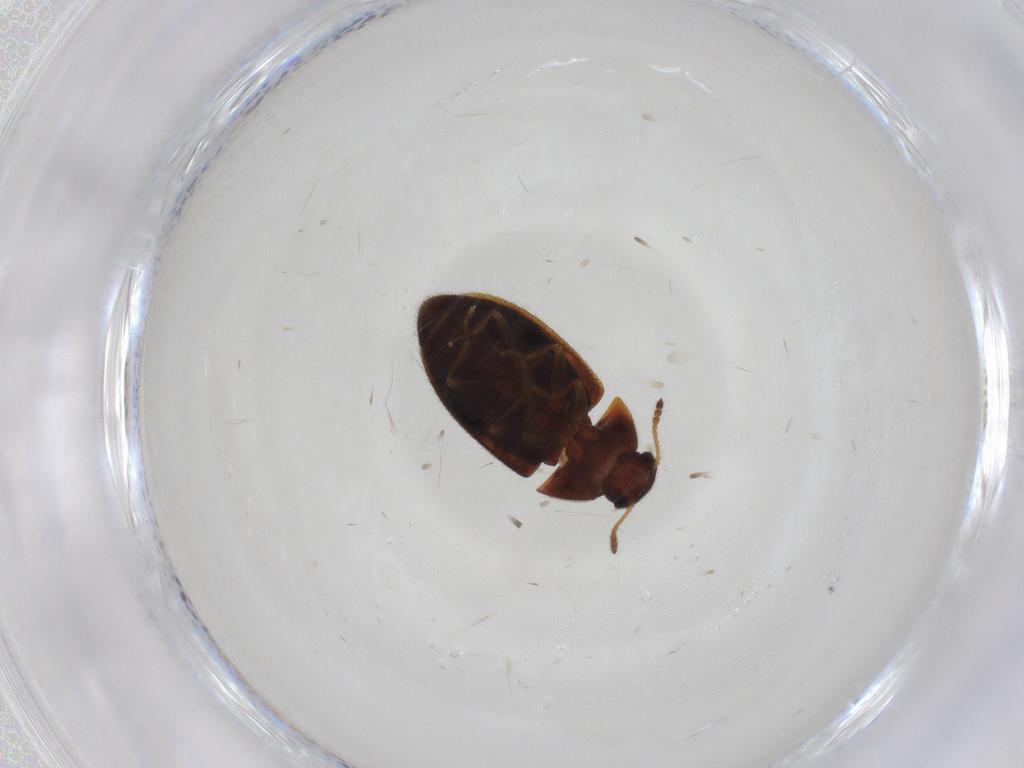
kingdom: Animalia
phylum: Arthropoda
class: Insecta
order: Coleoptera
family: Mycetophagidae
